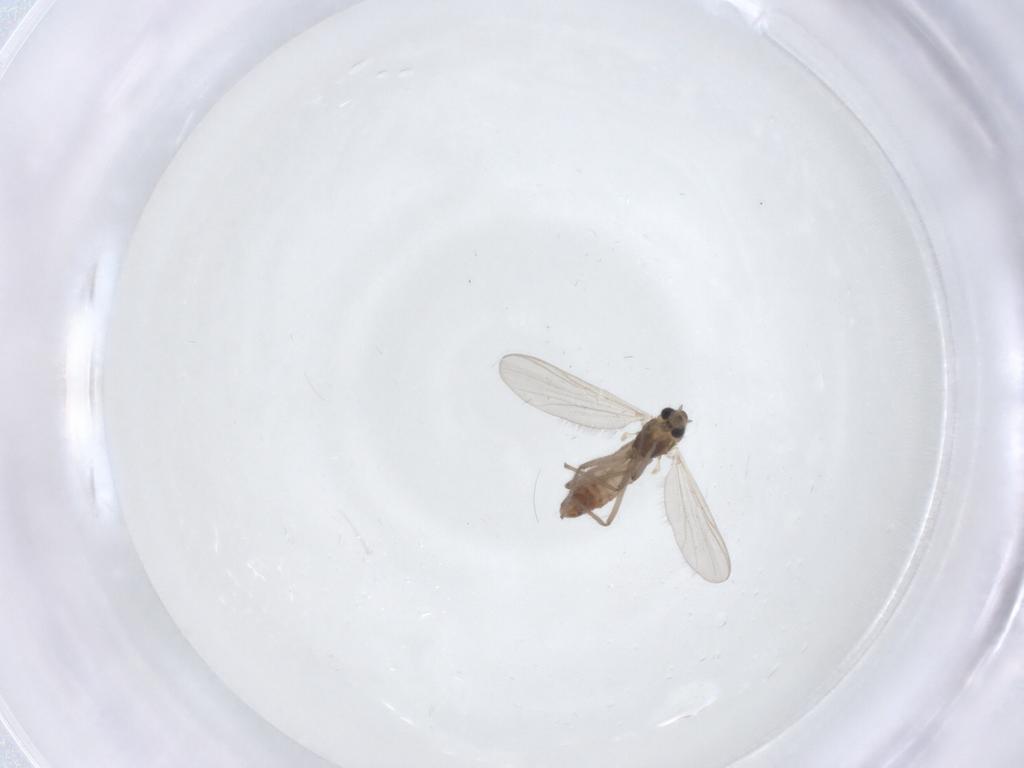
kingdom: Animalia
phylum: Arthropoda
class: Insecta
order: Diptera
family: Chironomidae
